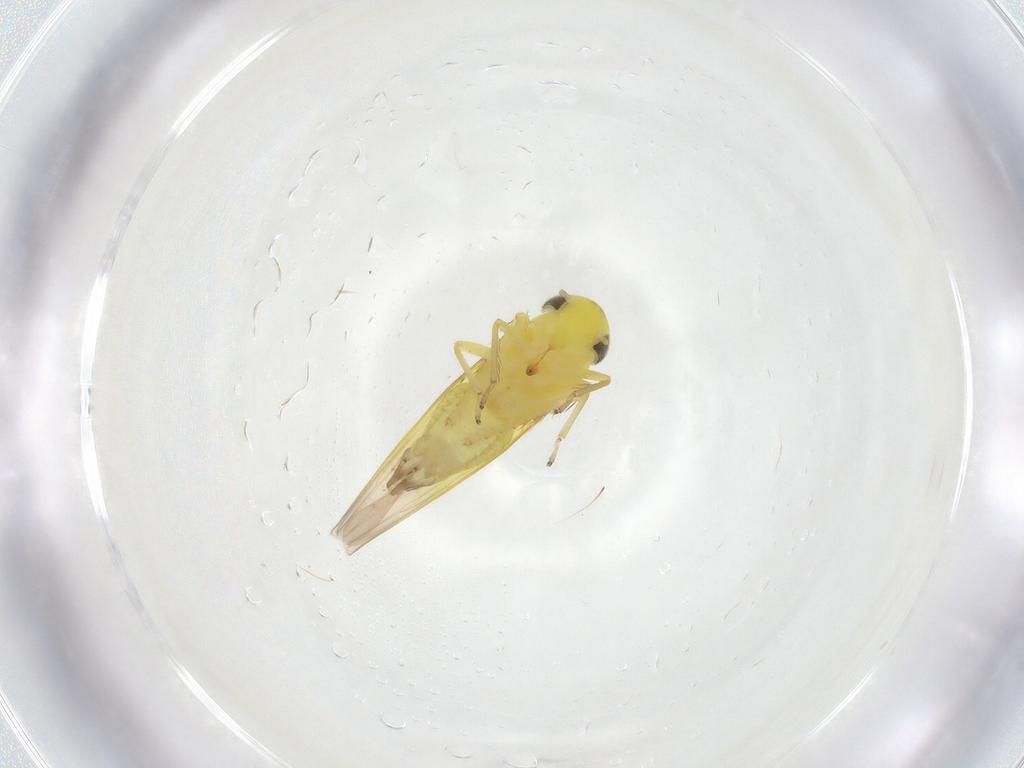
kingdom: Animalia
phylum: Arthropoda
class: Insecta
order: Hemiptera
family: Cicadellidae
